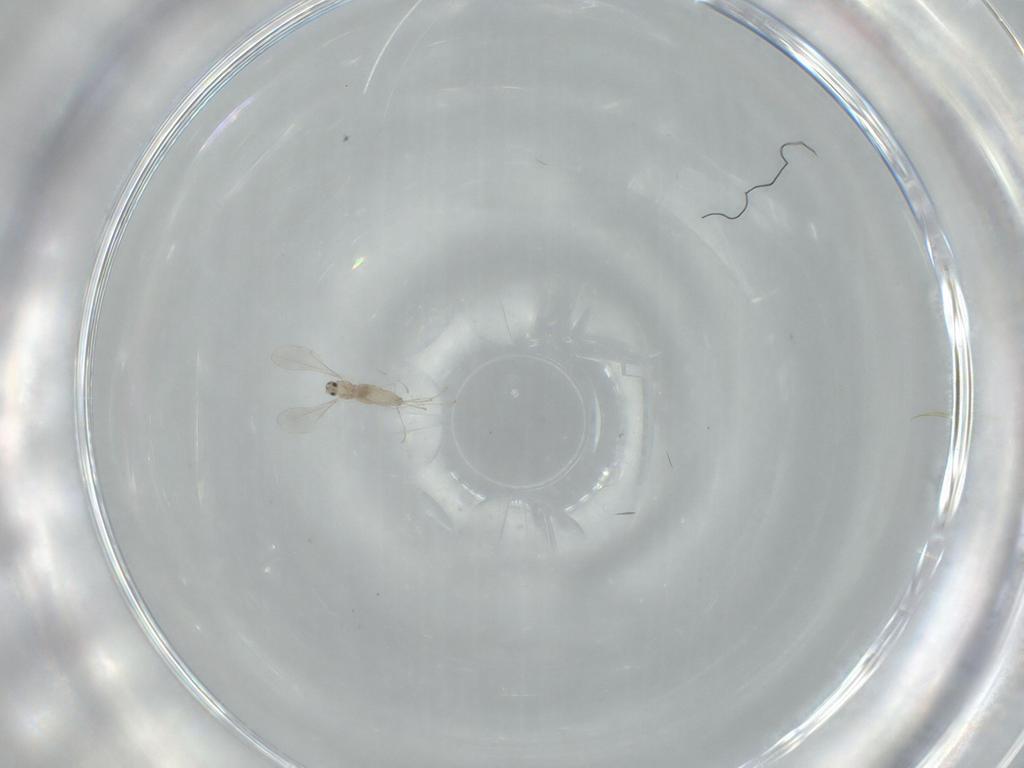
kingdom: Animalia
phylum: Arthropoda
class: Insecta
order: Diptera
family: Cecidomyiidae
